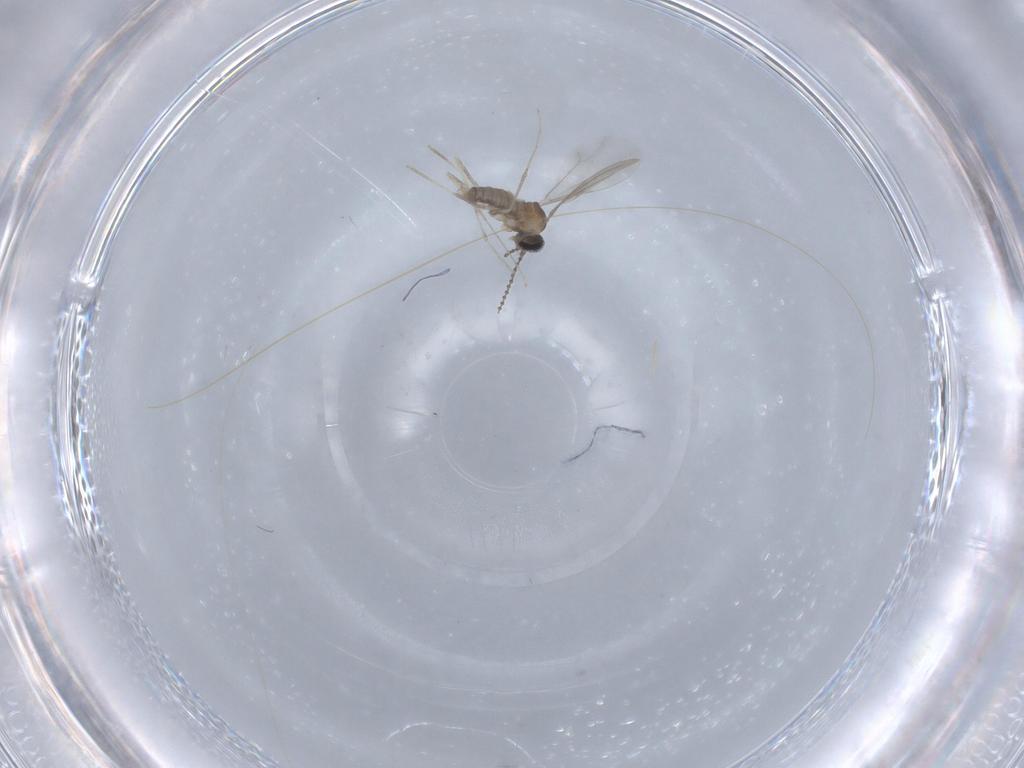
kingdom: Animalia
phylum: Arthropoda
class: Insecta
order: Diptera
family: Cecidomyiidae
